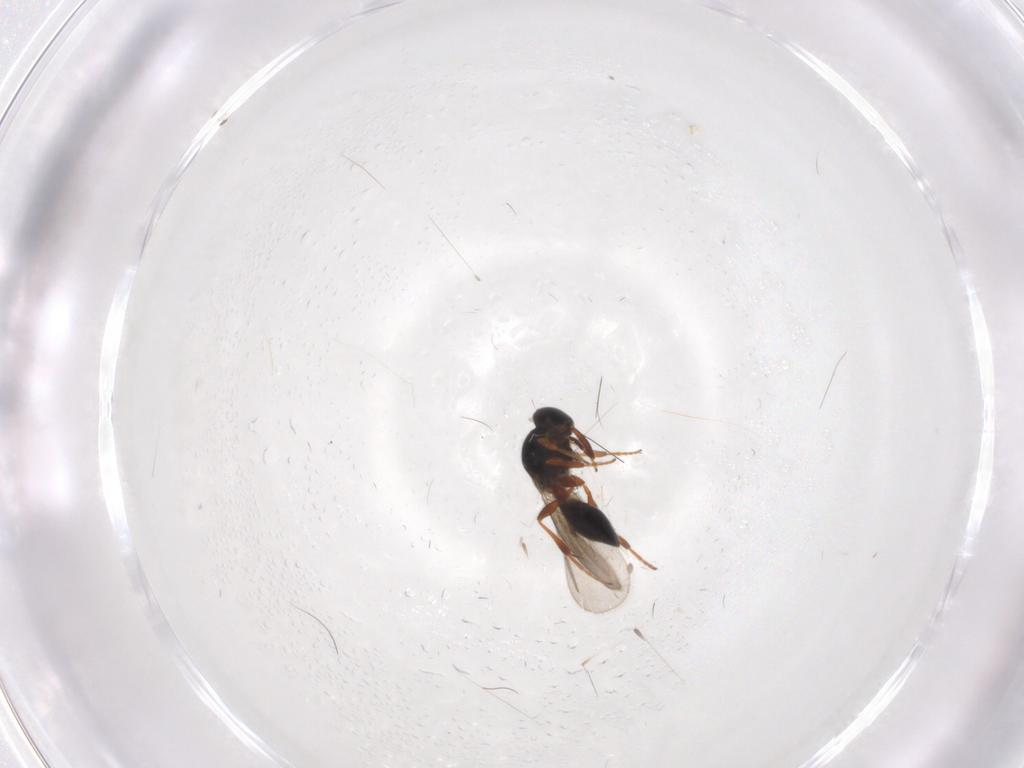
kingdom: Animalia
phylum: Arthropoda
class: Insecta
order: Hymenoptera
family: Platygastridae
